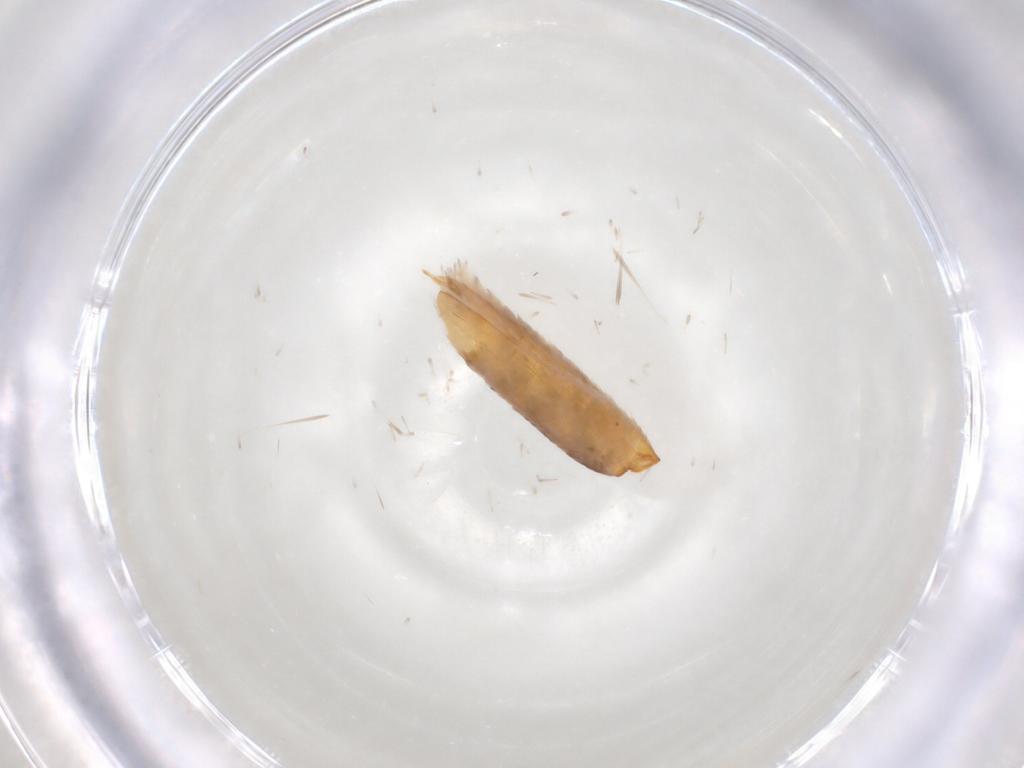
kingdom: Animalia
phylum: Arthropoda
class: Insecta
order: Lepidoptera
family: Xyloryctidae
